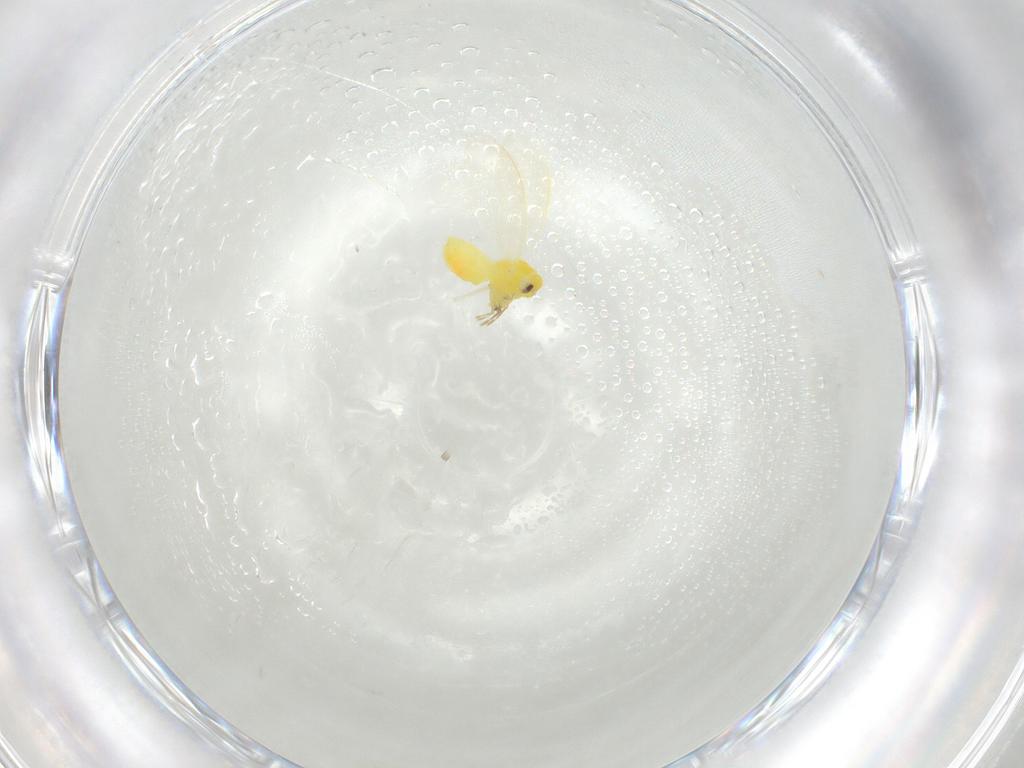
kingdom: Animalia
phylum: Arthropoda
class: Insecta
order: Hemiptera
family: Aleyrodidae
